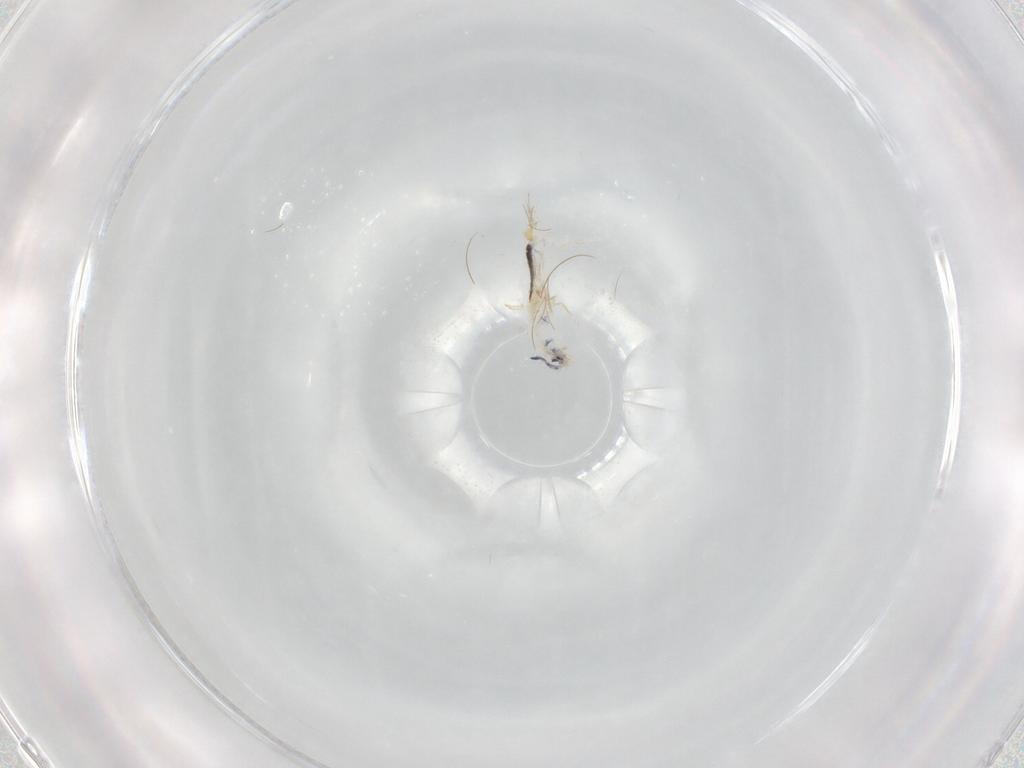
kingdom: Animalia
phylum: Arthropoda
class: Collembola
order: Entomobryomorpha
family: Entomobryidae
